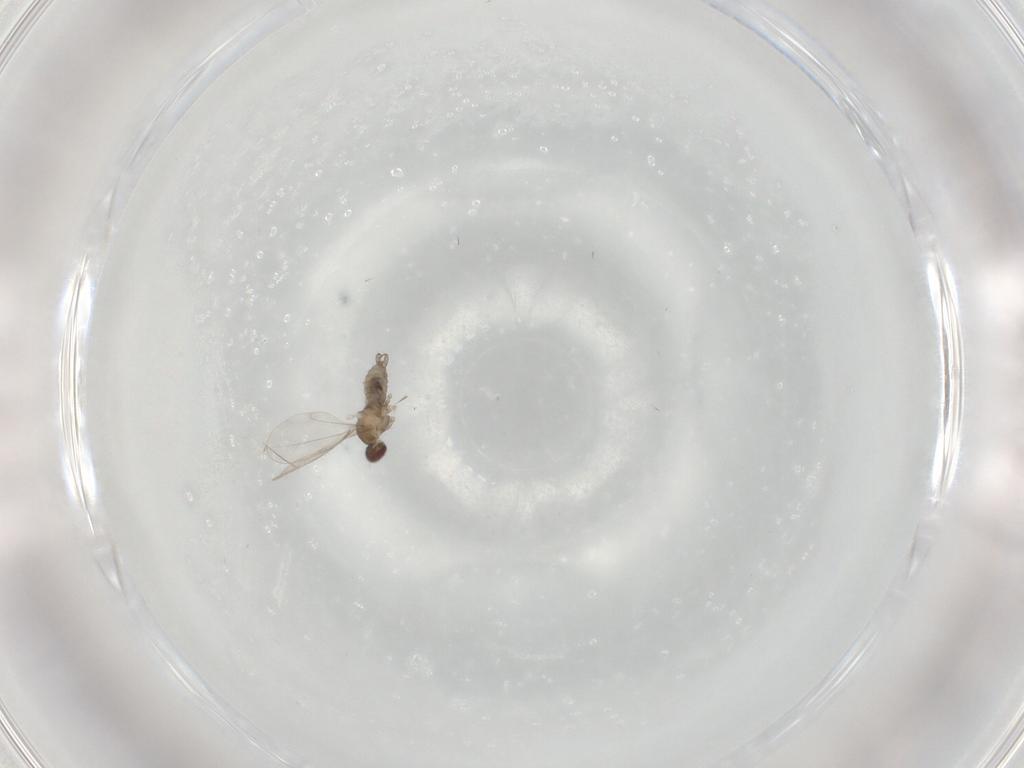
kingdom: Animalia
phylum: Arthropoda
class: Insecta
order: Diptera
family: Cecidomyiidae
